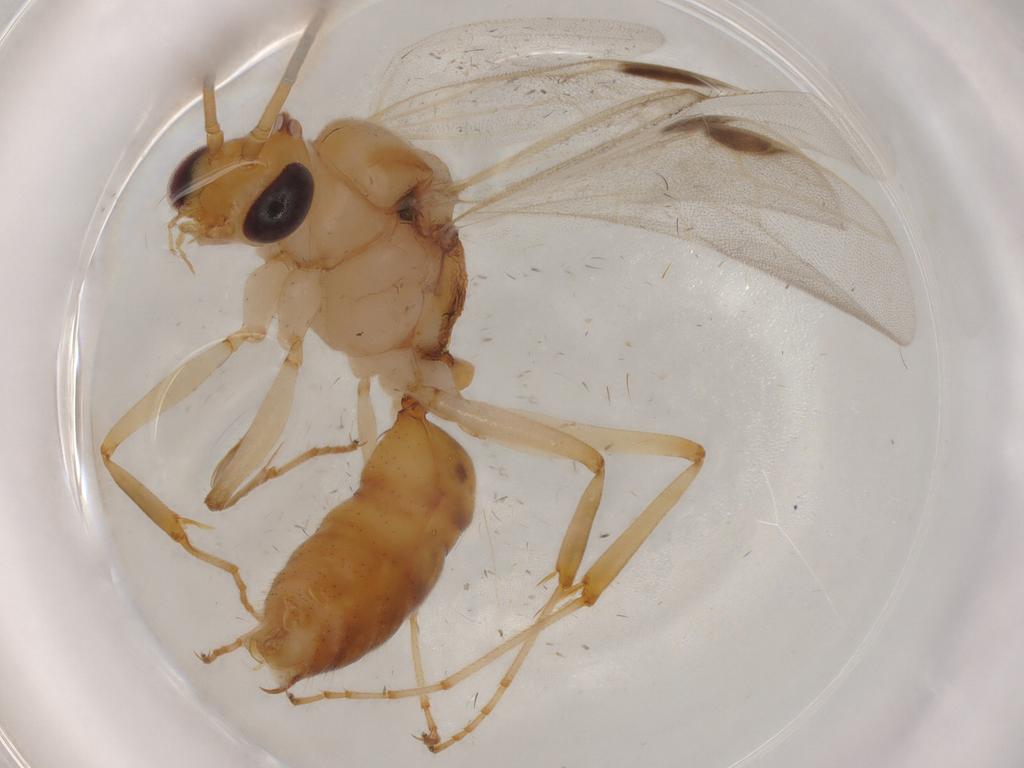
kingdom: Animalia
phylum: Arthropoda
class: Insecta
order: Hymenoptera
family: Formicidae
